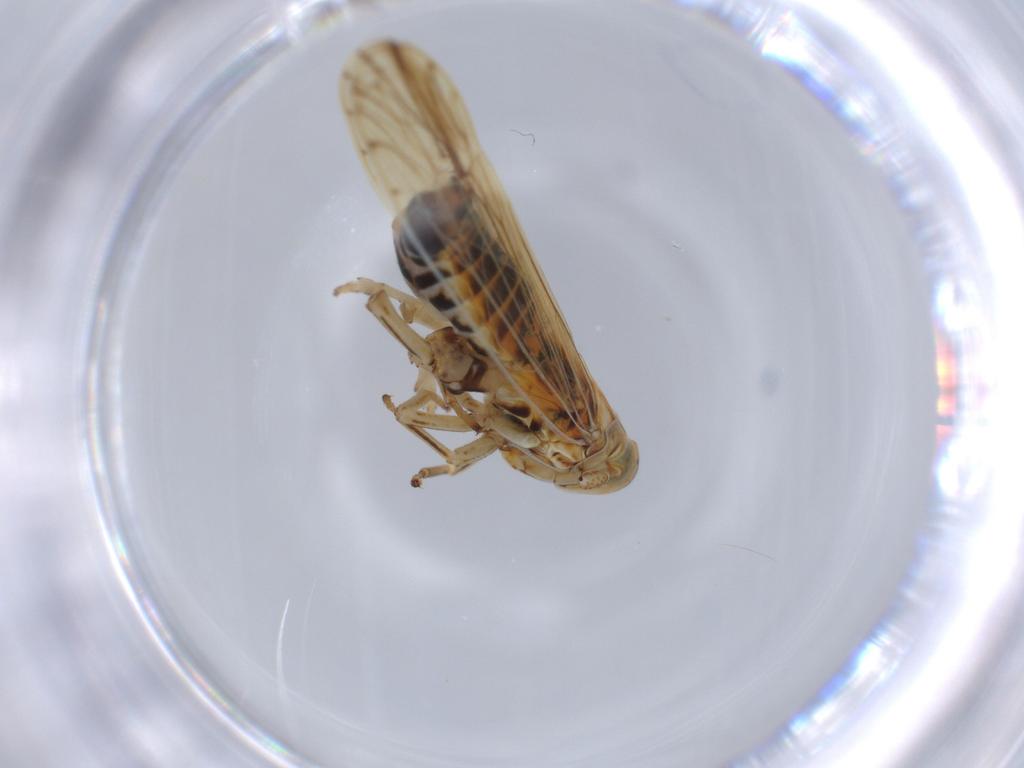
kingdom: Animalia
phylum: Arthropoda
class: Insecta
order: Hemiptera
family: Delphacidae
